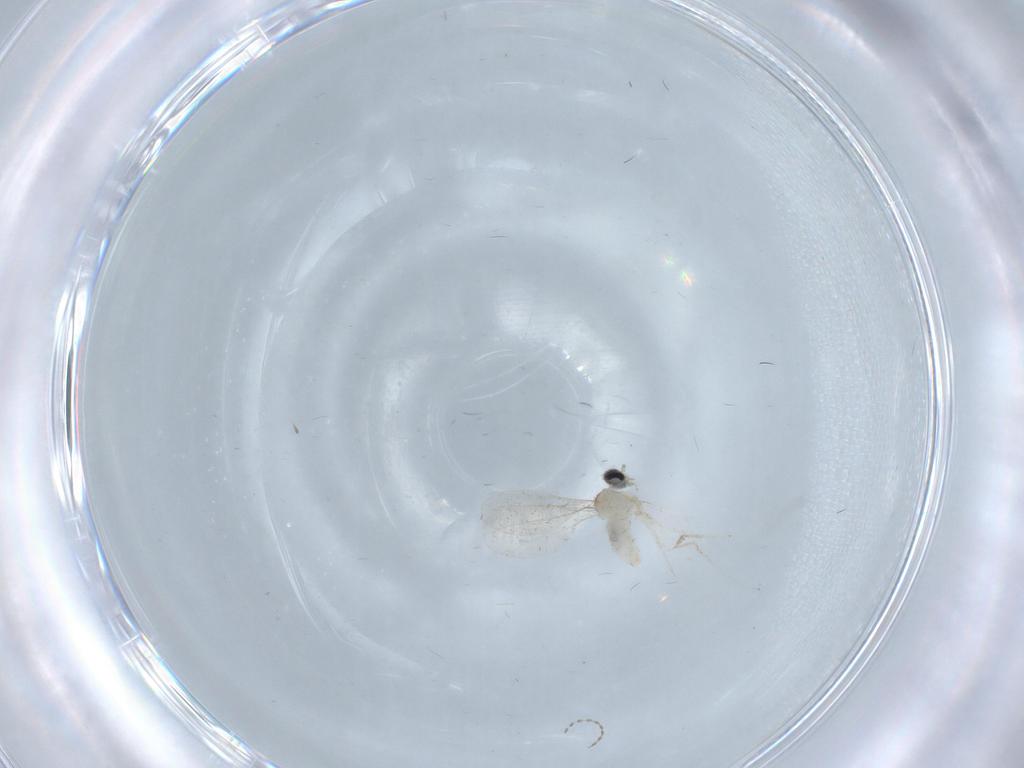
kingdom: Animalia
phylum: Arthropoda
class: Insecta
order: Diptera
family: Cecidomyiidae
